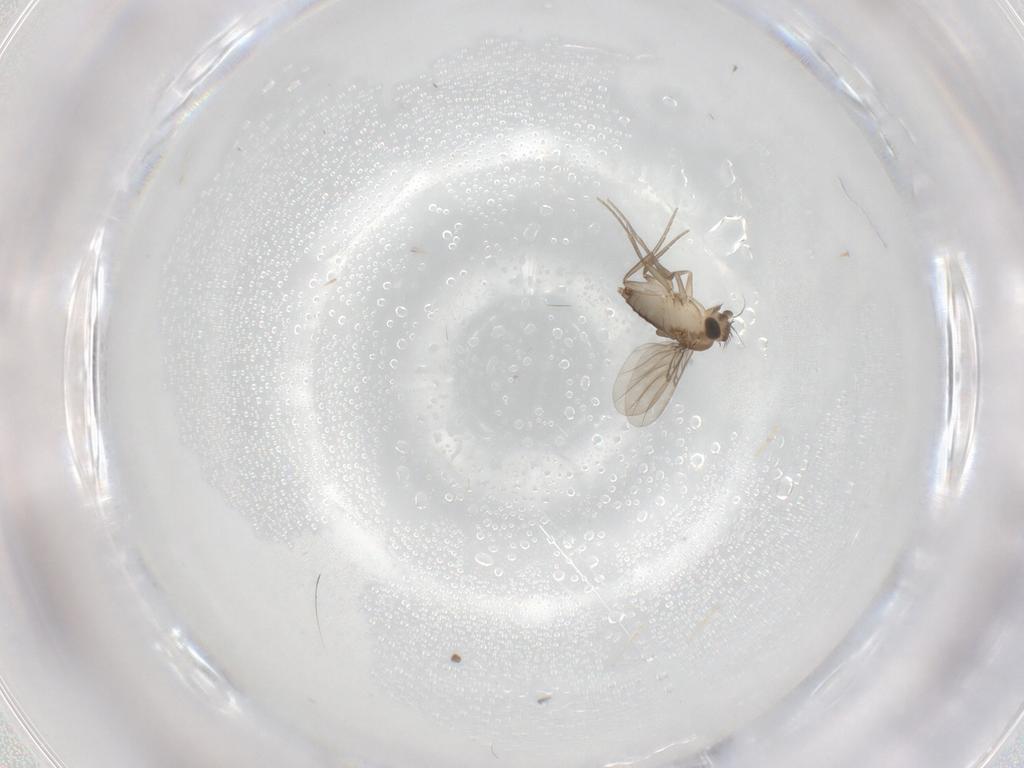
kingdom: Animalia
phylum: Arthropoda
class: Insecta
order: Diptera
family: Phoridae
